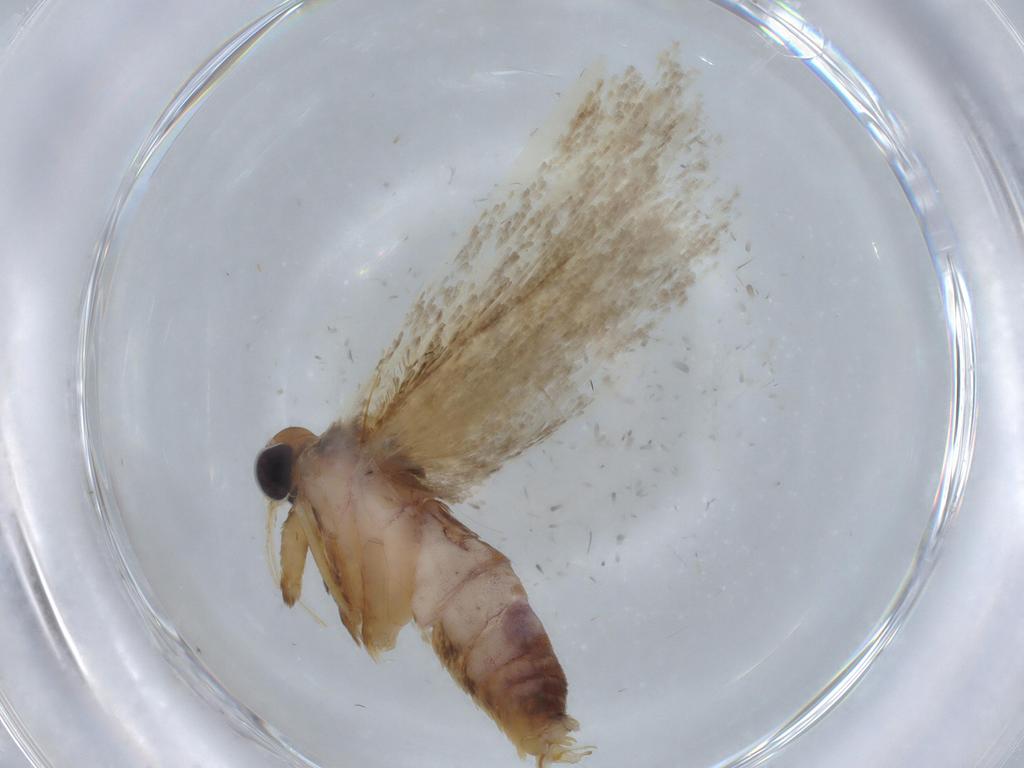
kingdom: Animalia
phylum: Arthropoda
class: Insecta
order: Lepidoptera
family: Blastobasidae
